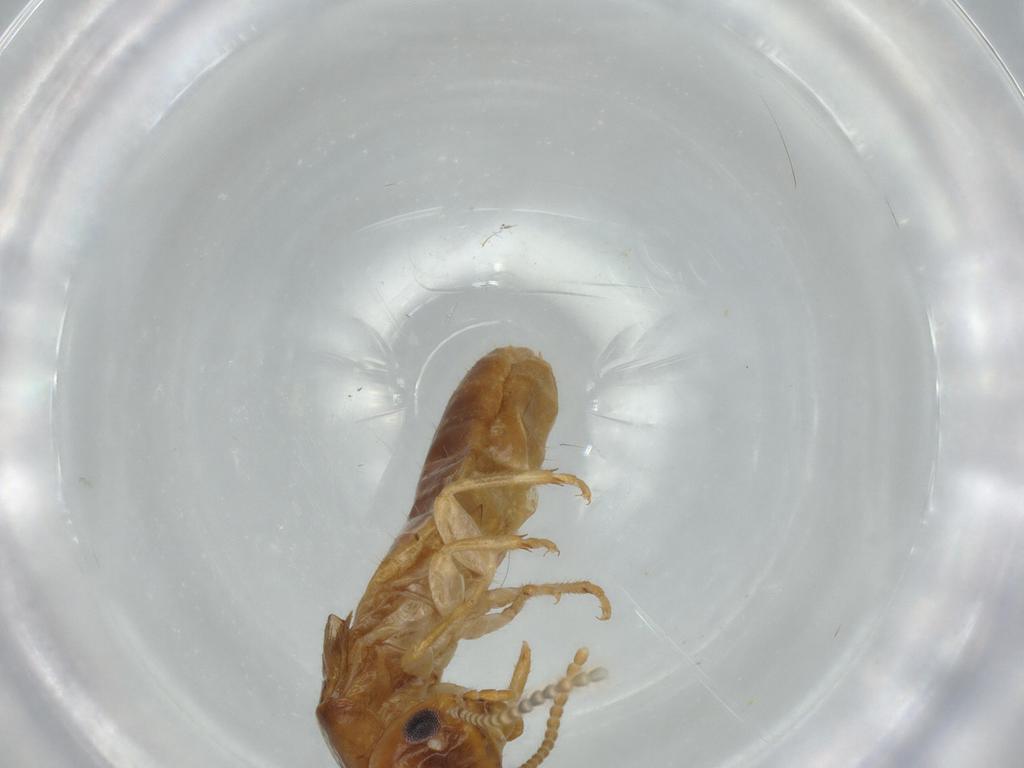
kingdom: Animalia
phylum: Arthropoda
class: Insecta
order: Blattodea
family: Kalotermitidae
